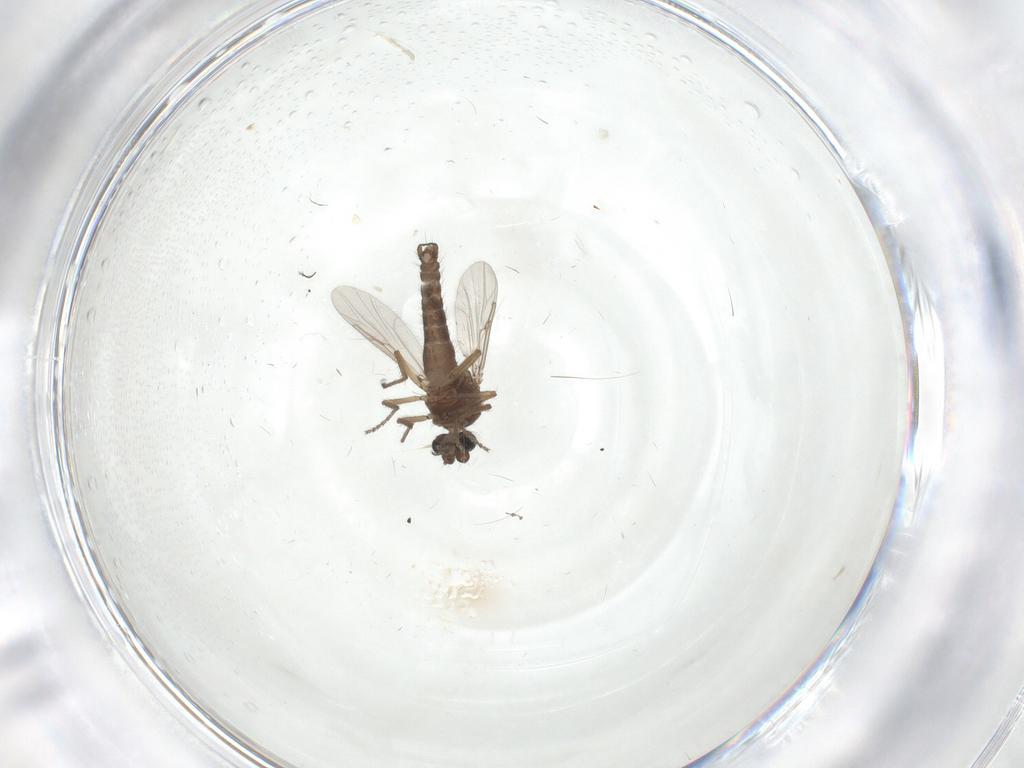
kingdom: Animalia
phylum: Arthropoda
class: Insecta
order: Diptera
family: Ceratopogonidae
